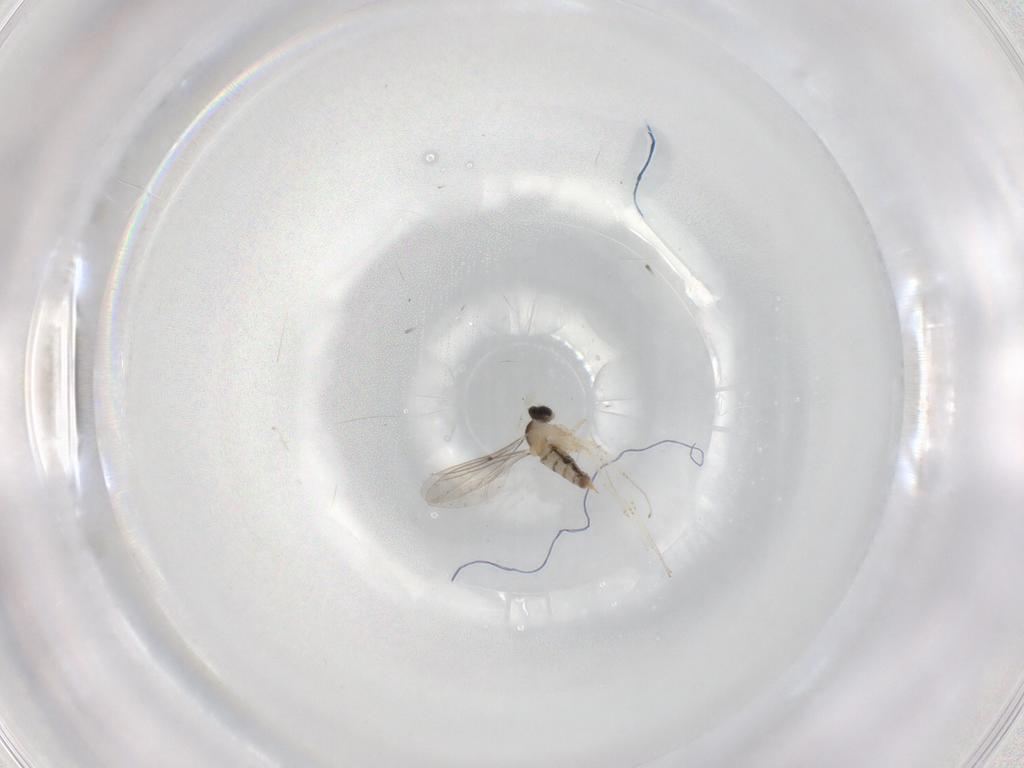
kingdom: Animalia
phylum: Arthropoda
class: Insecta
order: Diptera
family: Cecidomyiidae
